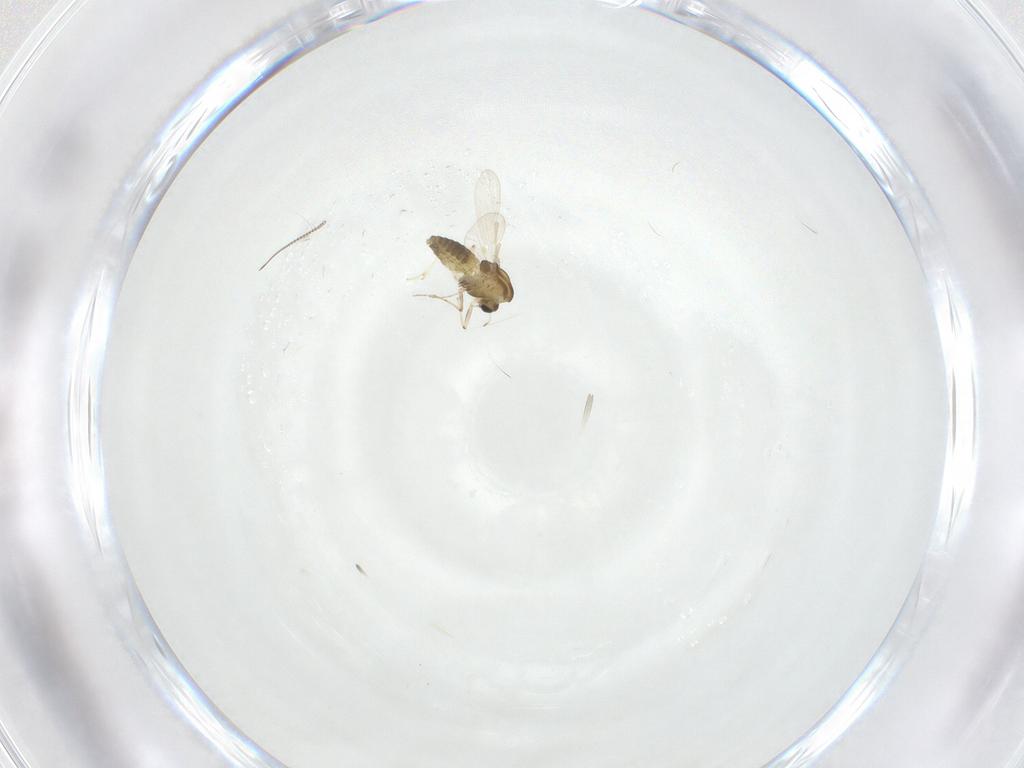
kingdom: Animalia
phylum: Arthropoda
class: Insecta
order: Diptera
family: Chironomidae
